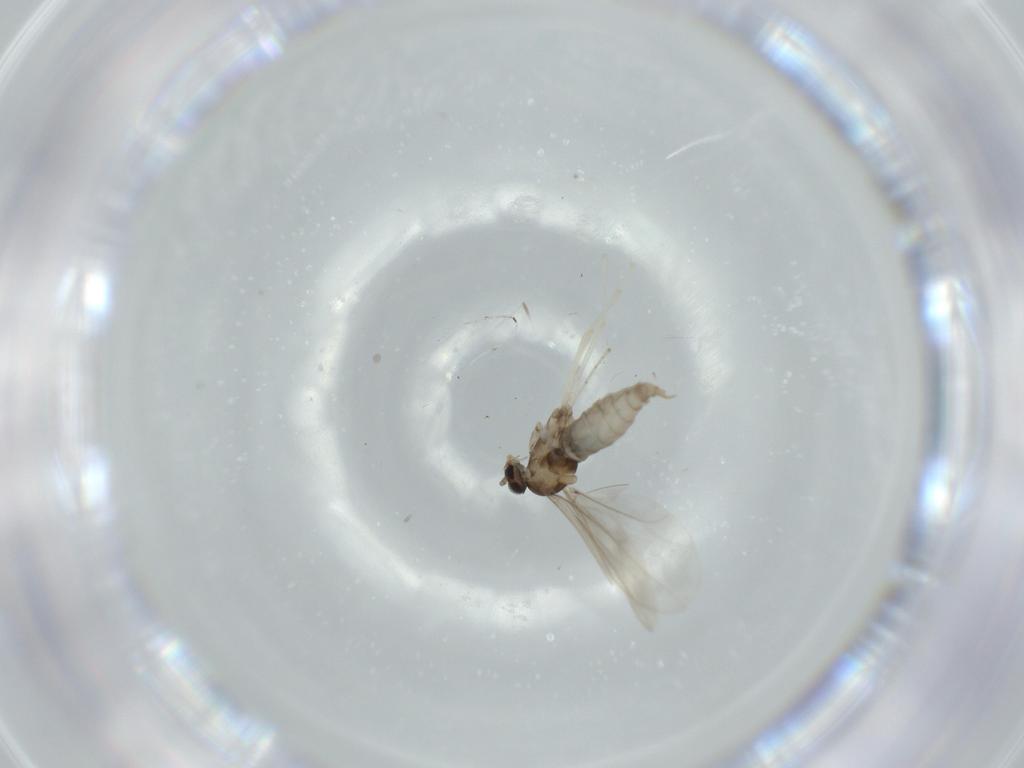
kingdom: Animalia
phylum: Arthropoda
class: Insecta
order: Diptera
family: Cecidomyiidae
